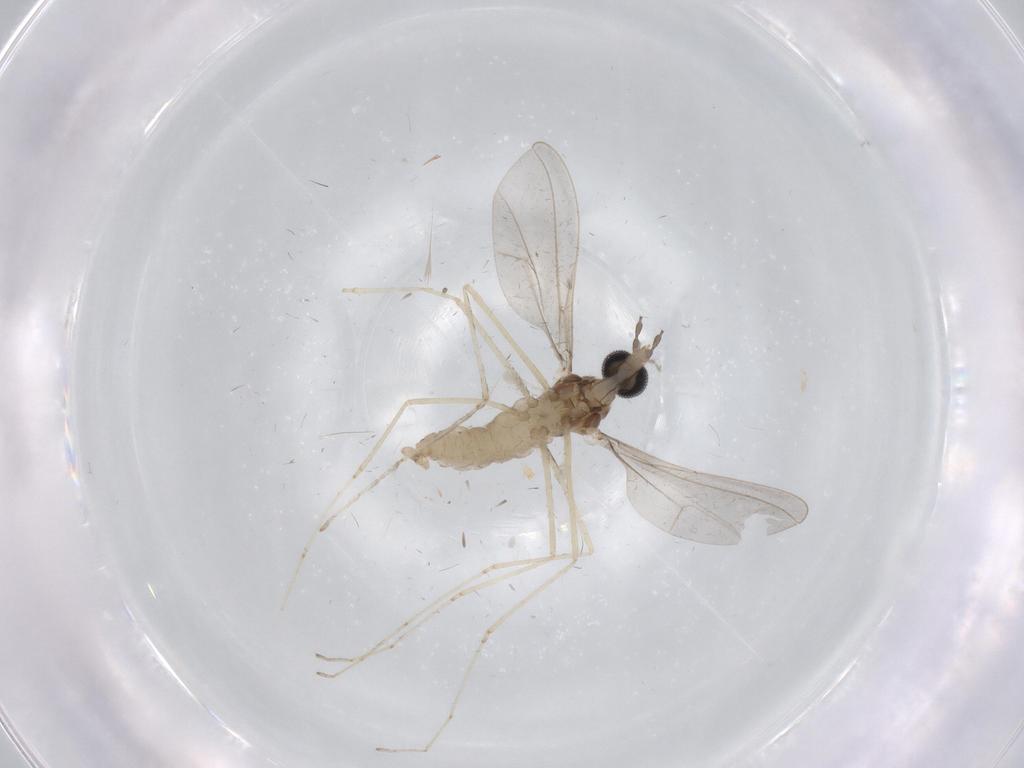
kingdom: Animalia
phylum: Arthropoda
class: Insecta
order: Diptera
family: Cecidomyiidae
